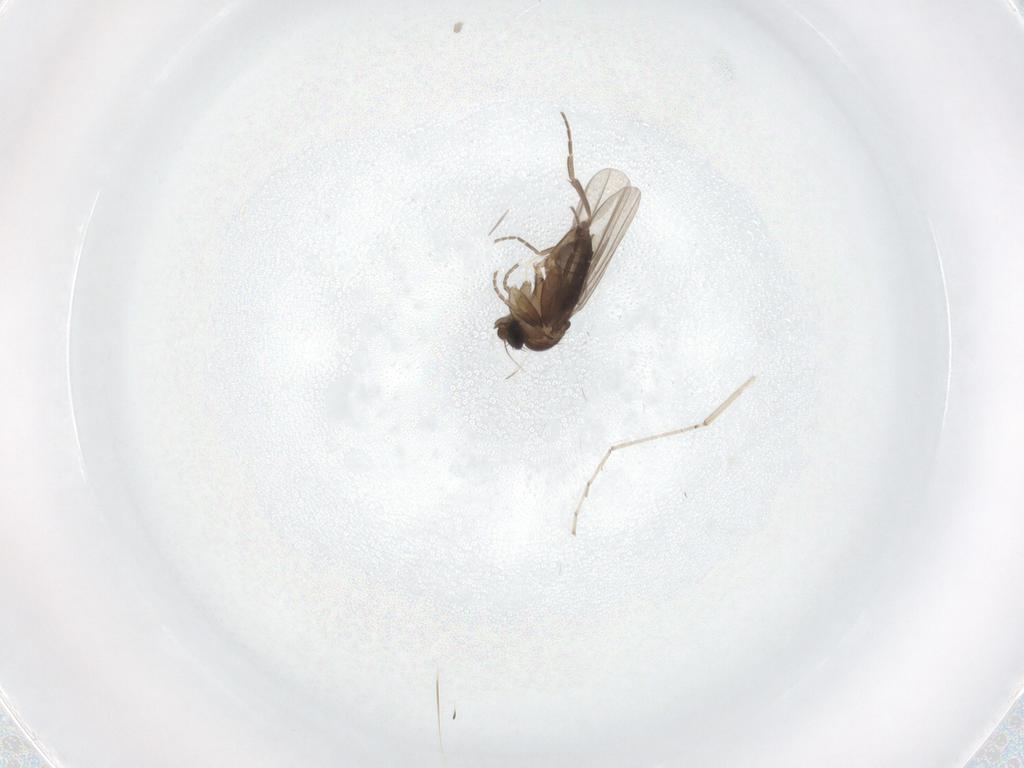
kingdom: Animalia
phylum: Arthropoda
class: Insecta
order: Diptera
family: Phoridae
